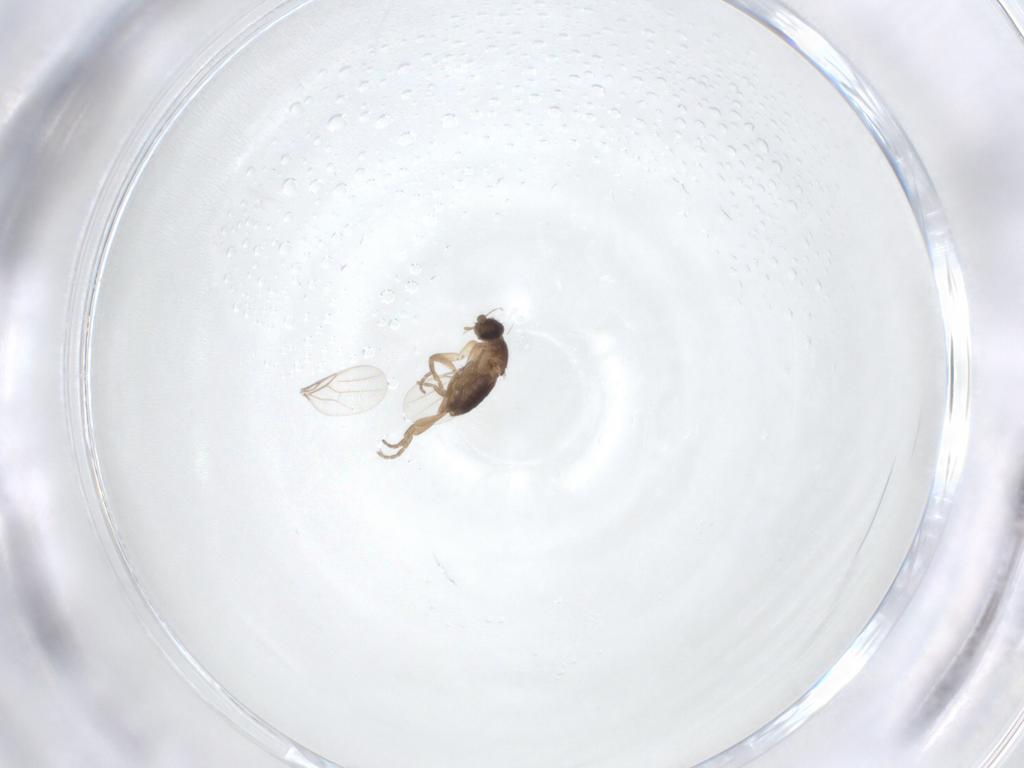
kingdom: Animalia
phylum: Arthropoda
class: Insecta
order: Diptera
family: Phoridae
